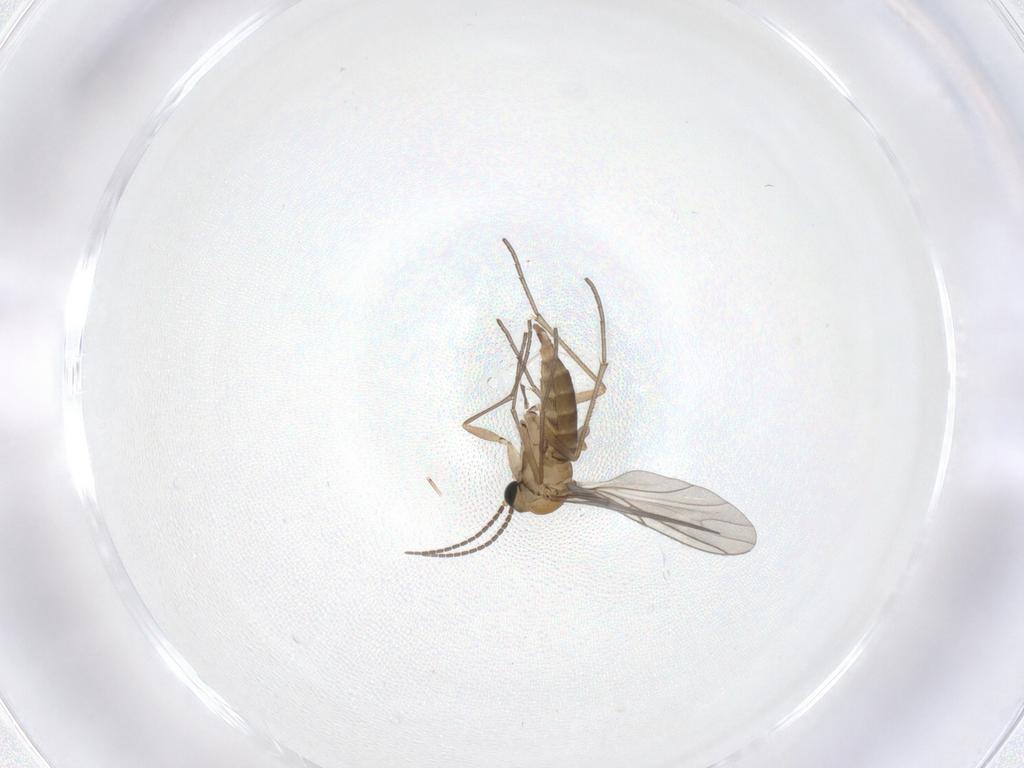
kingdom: Animalia
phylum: Arthropoda
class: Insecta
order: Diptera
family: Sciaridae
